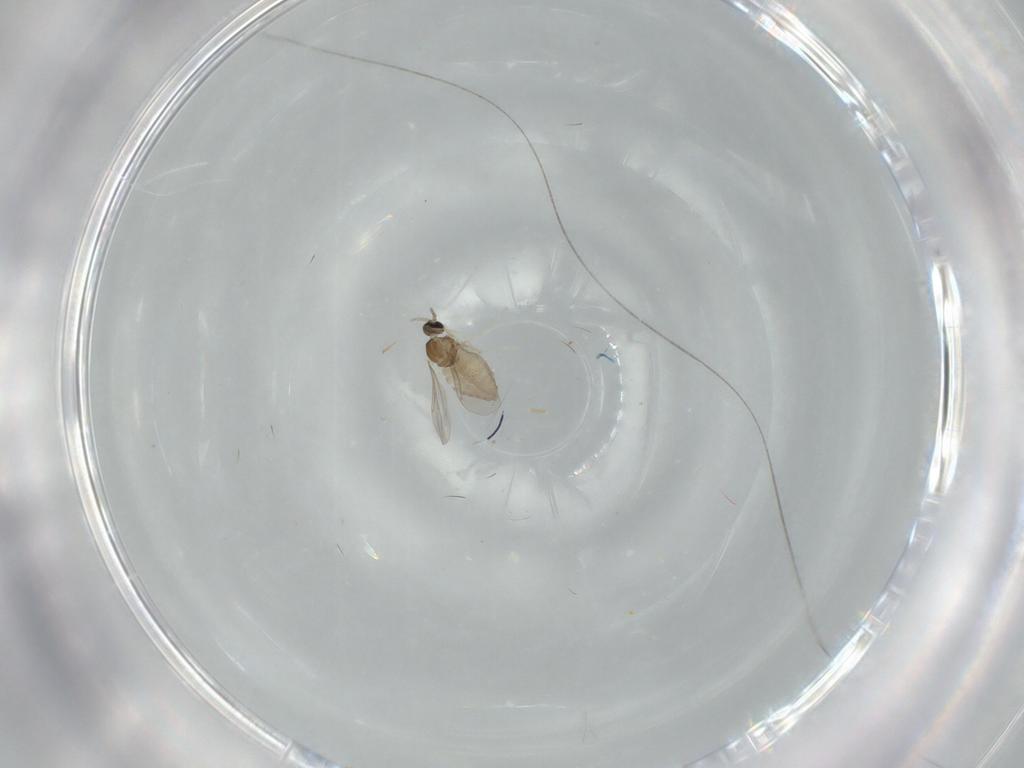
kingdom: Animalia
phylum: Arthropoda
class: Insecta
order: Diptera
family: Cecidomyiidae
